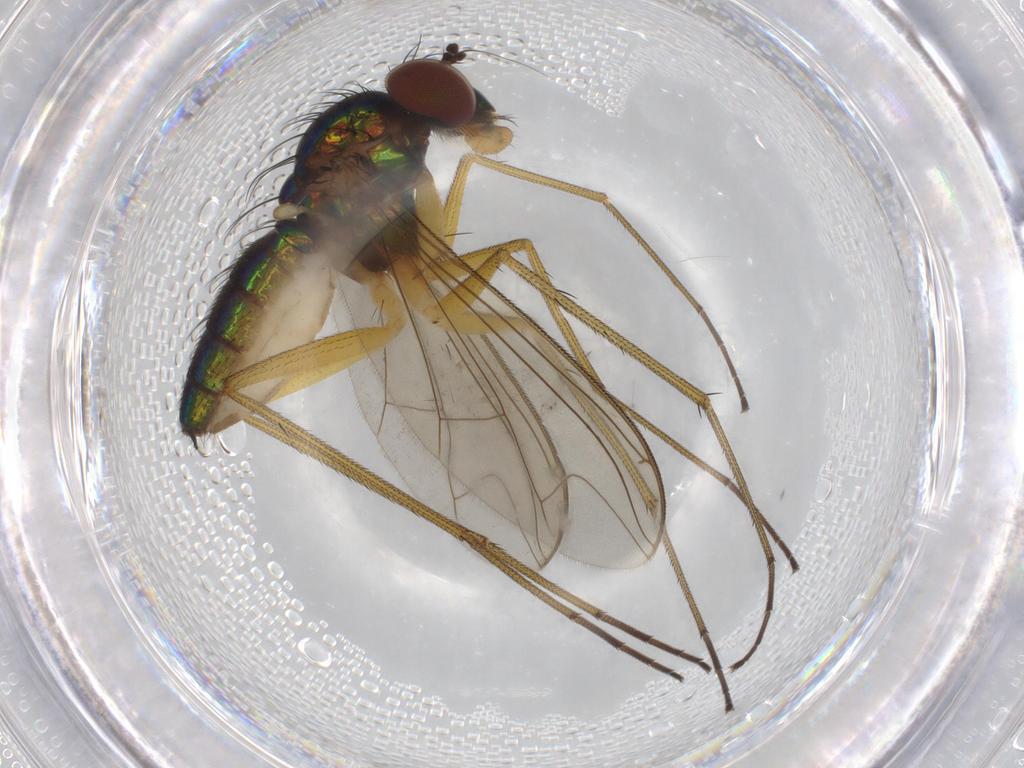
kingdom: Animalia
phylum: Arthropoda
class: Insecta
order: Diptera
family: Dolichopodidae
